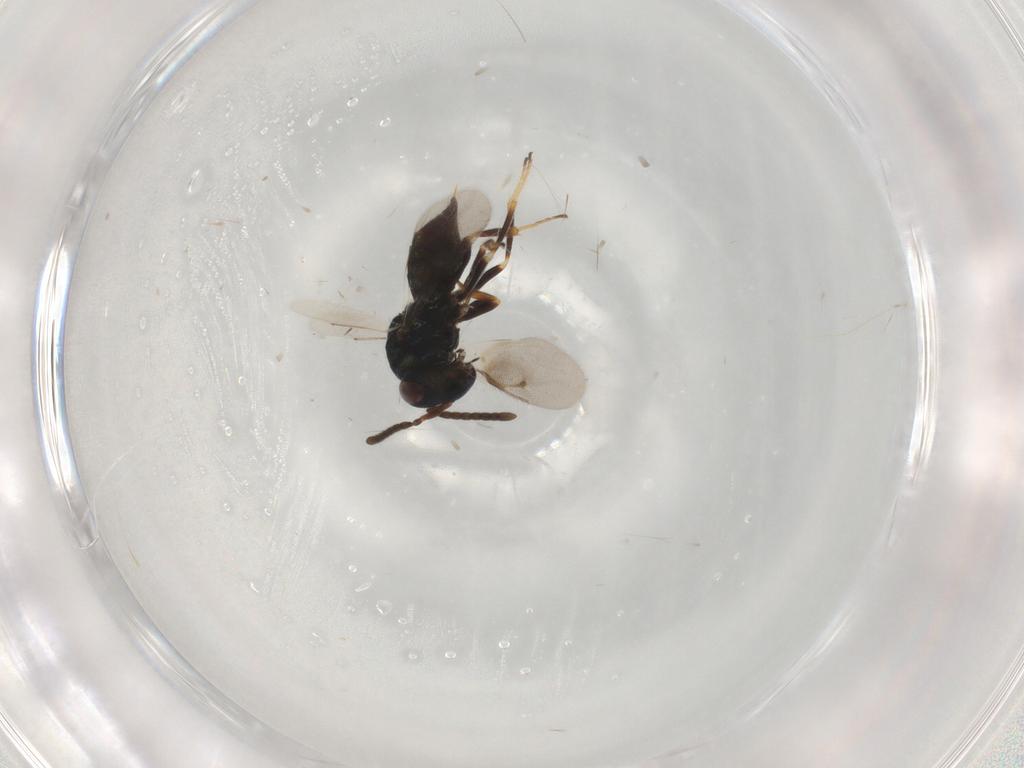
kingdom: Animalia
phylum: Arthropoda
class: Insecta
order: Hymenoptera
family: Pteromalidae
